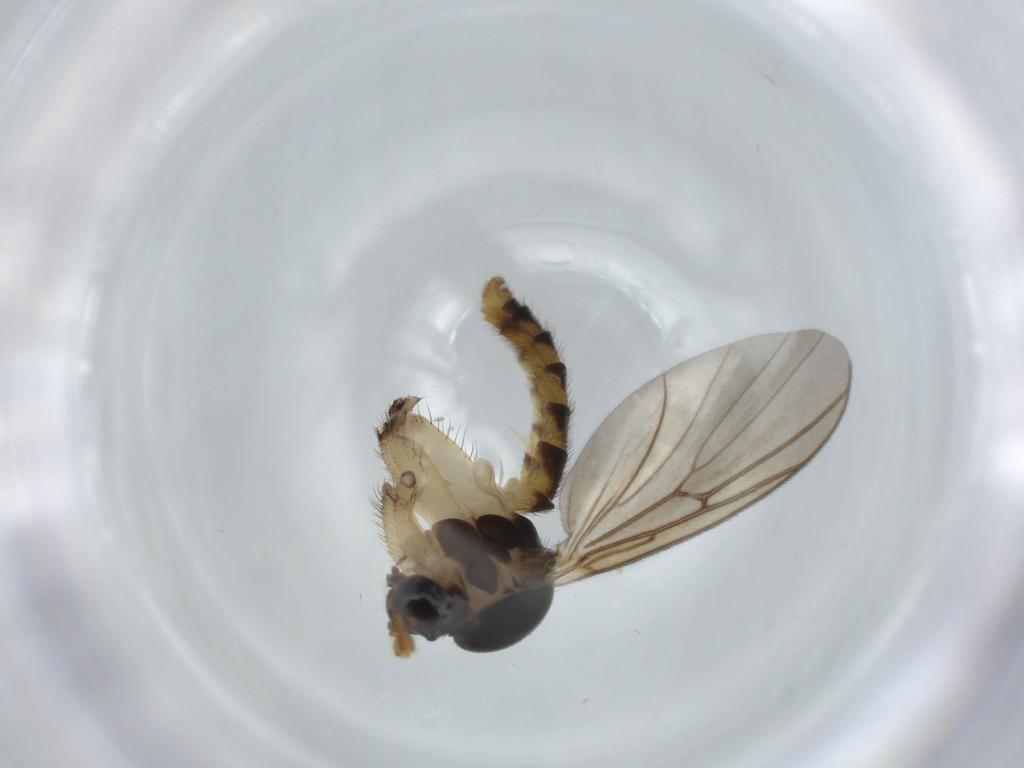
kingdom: Animalia
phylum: Arthropoda
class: Insecta
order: Diptera
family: Mycetophilidae
